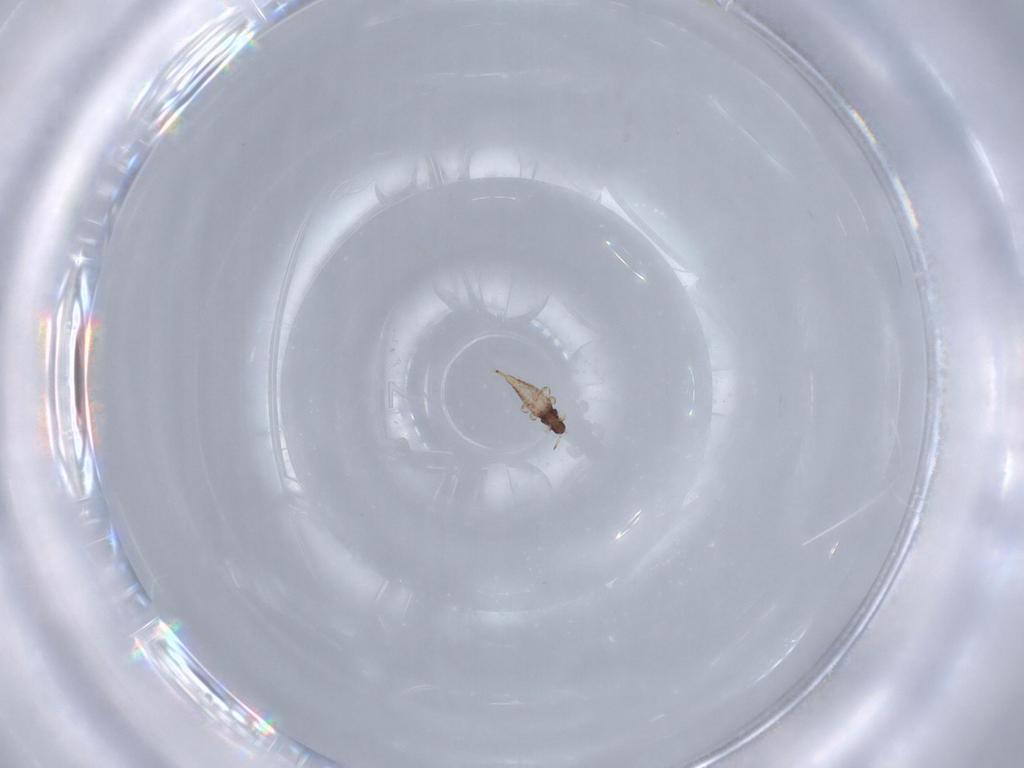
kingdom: Animalia
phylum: Arthropoda
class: Insecta
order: Thysanoptera
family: Phlaeothripidae
